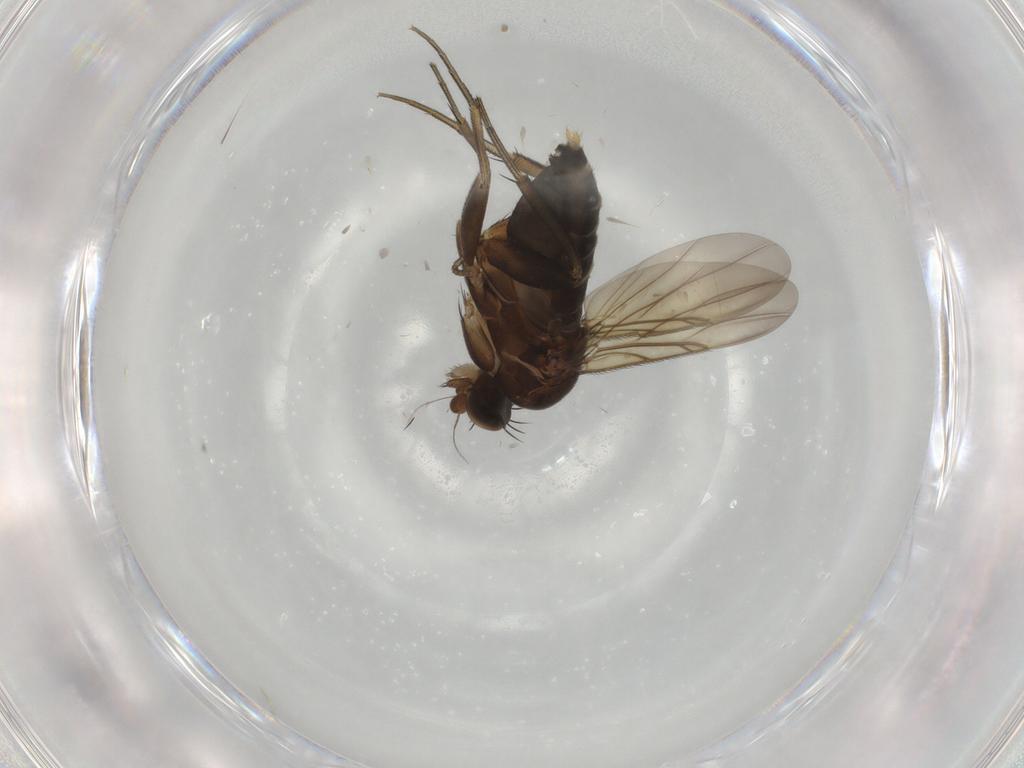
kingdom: Animalia
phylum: Arthropoda
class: Insecta
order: Diptera
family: Phoridae
